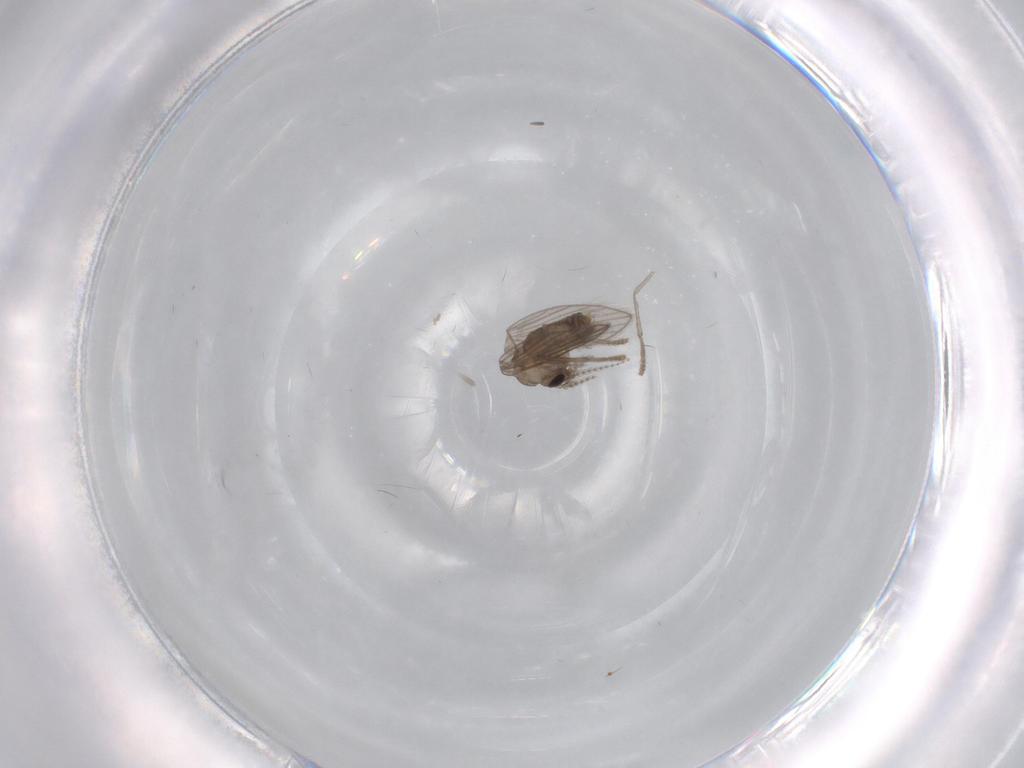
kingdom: Animalia
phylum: Arthropoda
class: Insecta
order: Diptera
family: Psychodidae
